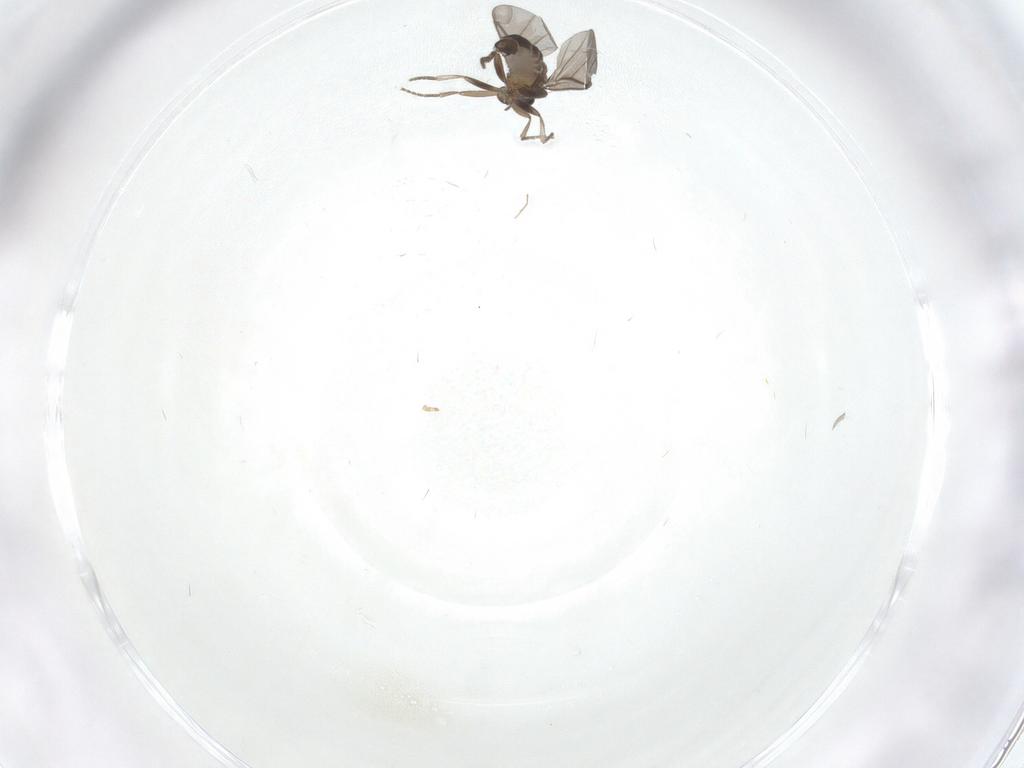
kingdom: Animalia
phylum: Arthropoda
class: Insecta
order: Diptera
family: Chironomidae
